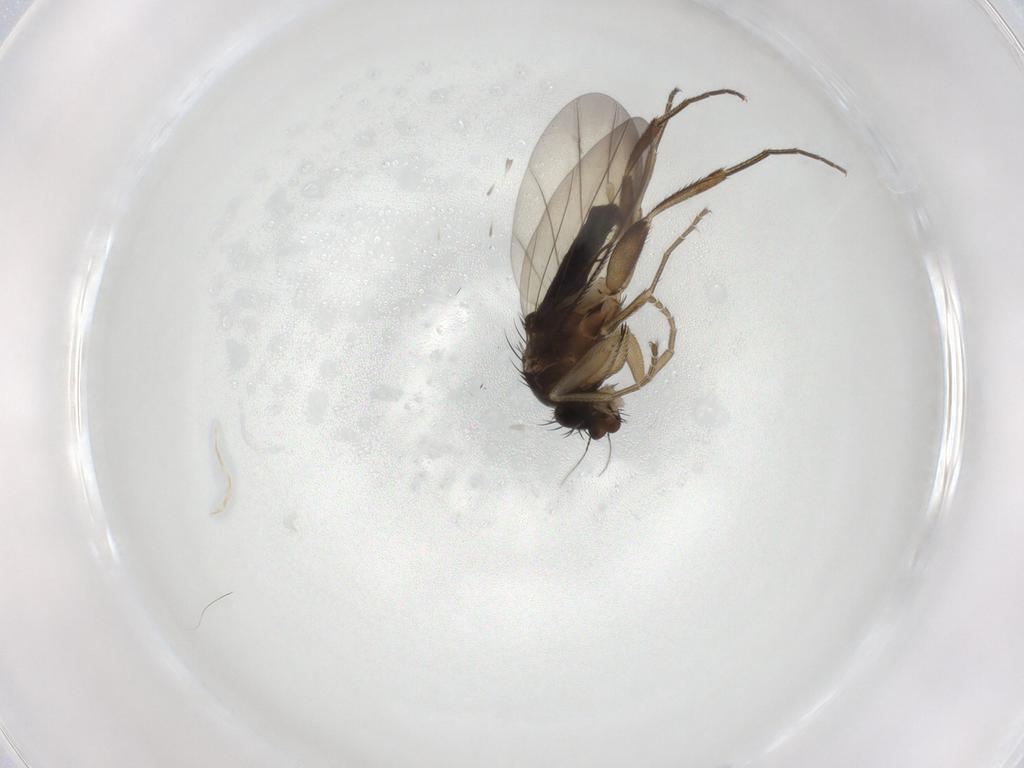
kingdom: Animalia
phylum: Arthropoda
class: Insecta
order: Diptera
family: Phoridae
